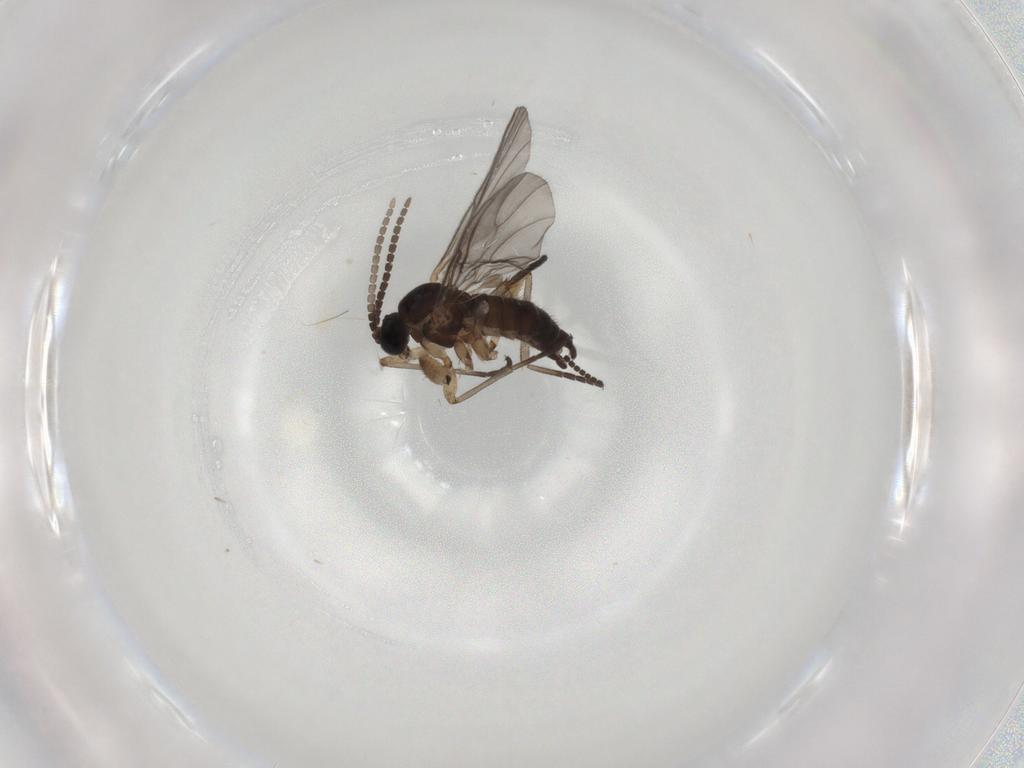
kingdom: Animalia
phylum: Arthropoda
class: Insecta
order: Diptera
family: Sciaridae
